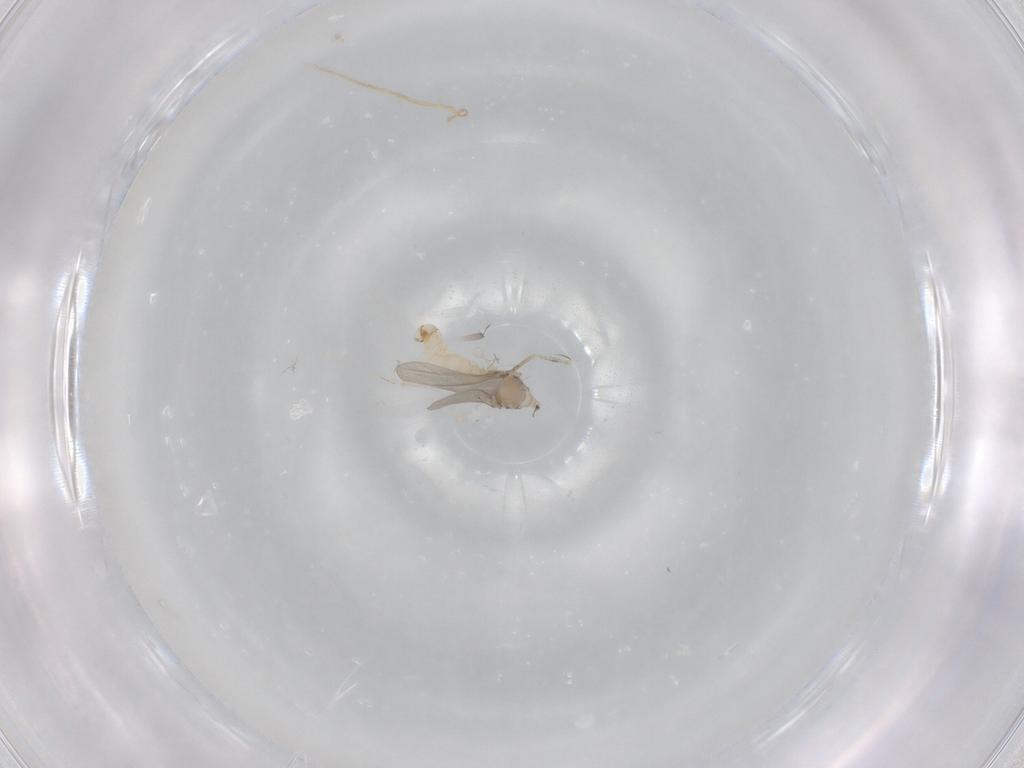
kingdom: Animalia
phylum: Arthropoda
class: Insecta
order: Diptera
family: Cecidomyiidae
